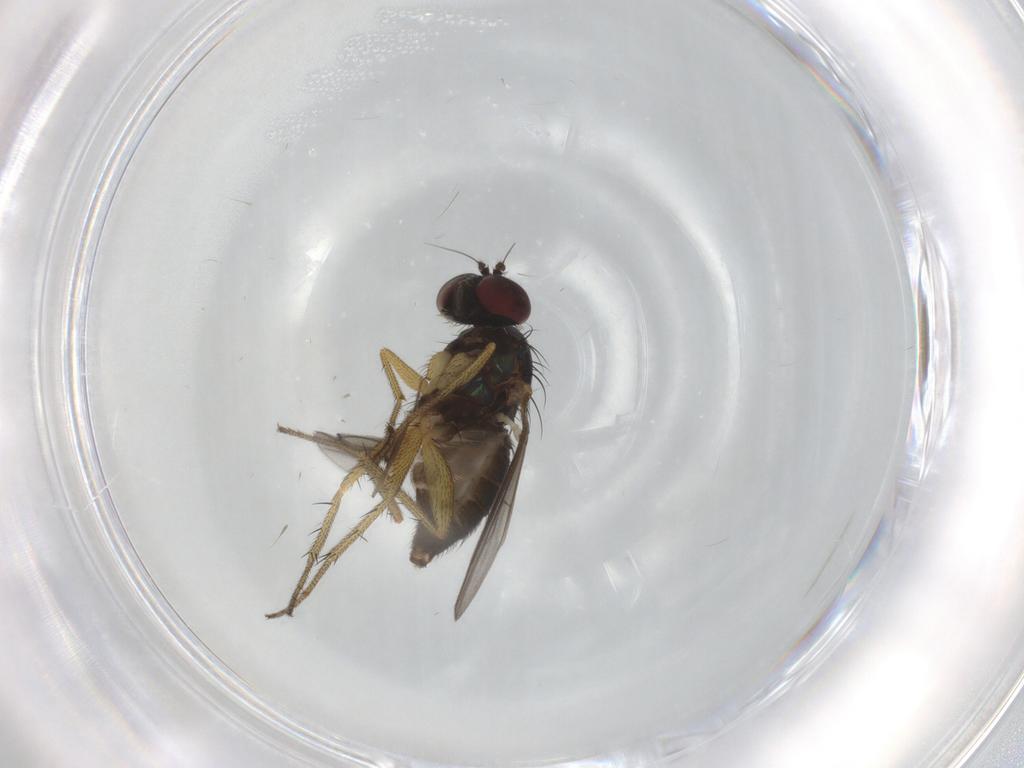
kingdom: Animalia
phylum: Arthropoda
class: Insecta
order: Diptera
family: Dolichopodidae
